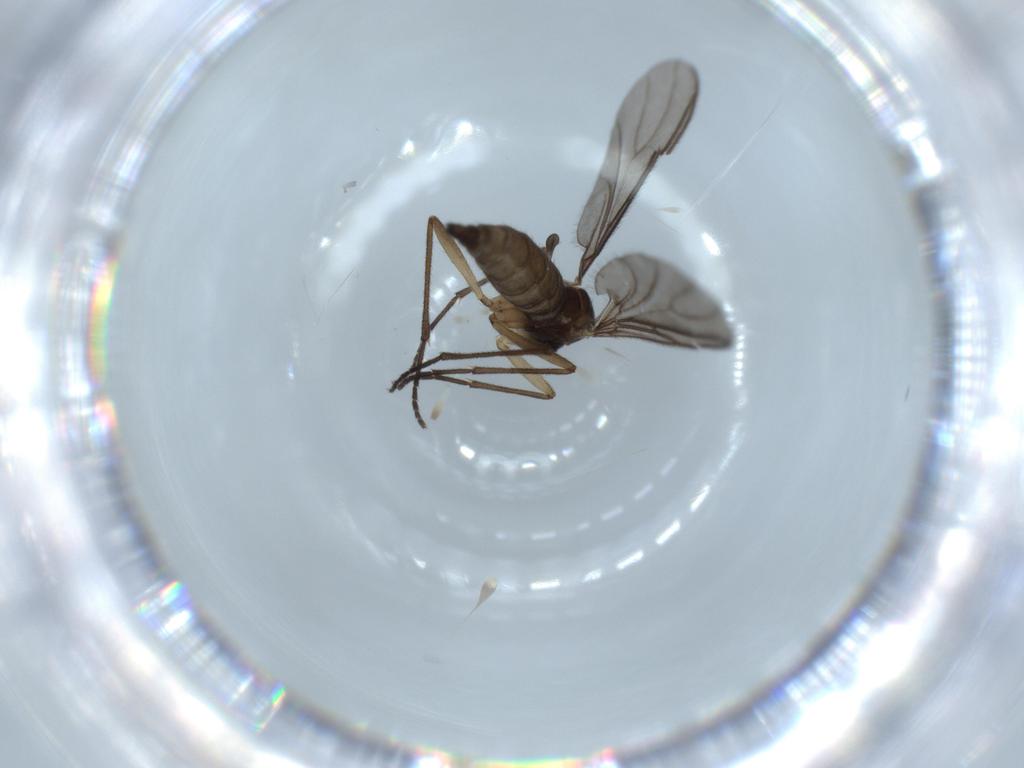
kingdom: Animalia
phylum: Arthropoda
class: Insecta
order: Diptera
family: Sciaridae
